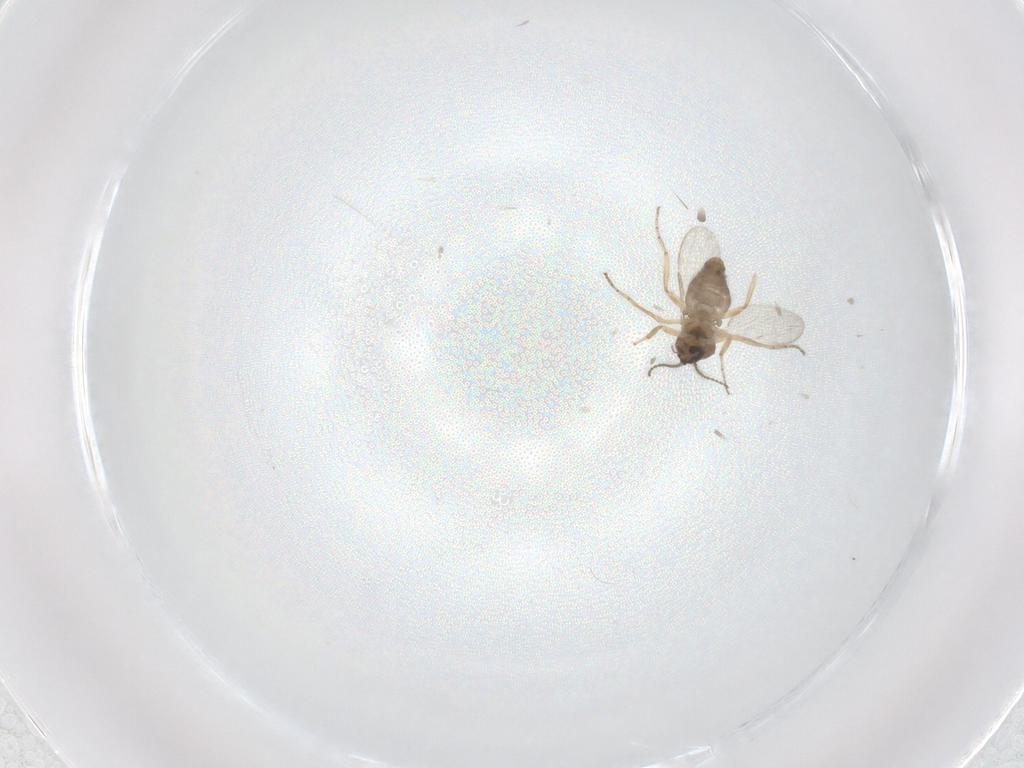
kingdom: Animalia
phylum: Arthropoda
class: Insecta
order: Diptera
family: Ceratopogonidae
